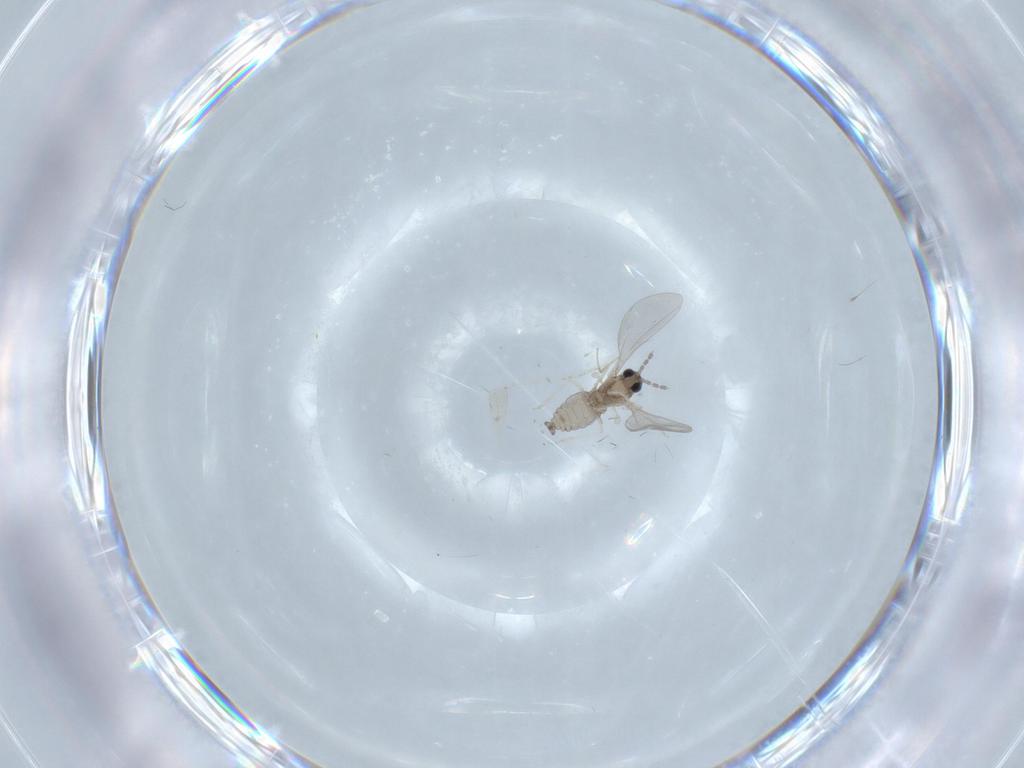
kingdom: Animalia
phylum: Arthropoda
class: Insecta
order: Diptera
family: Cecidomyiidae
